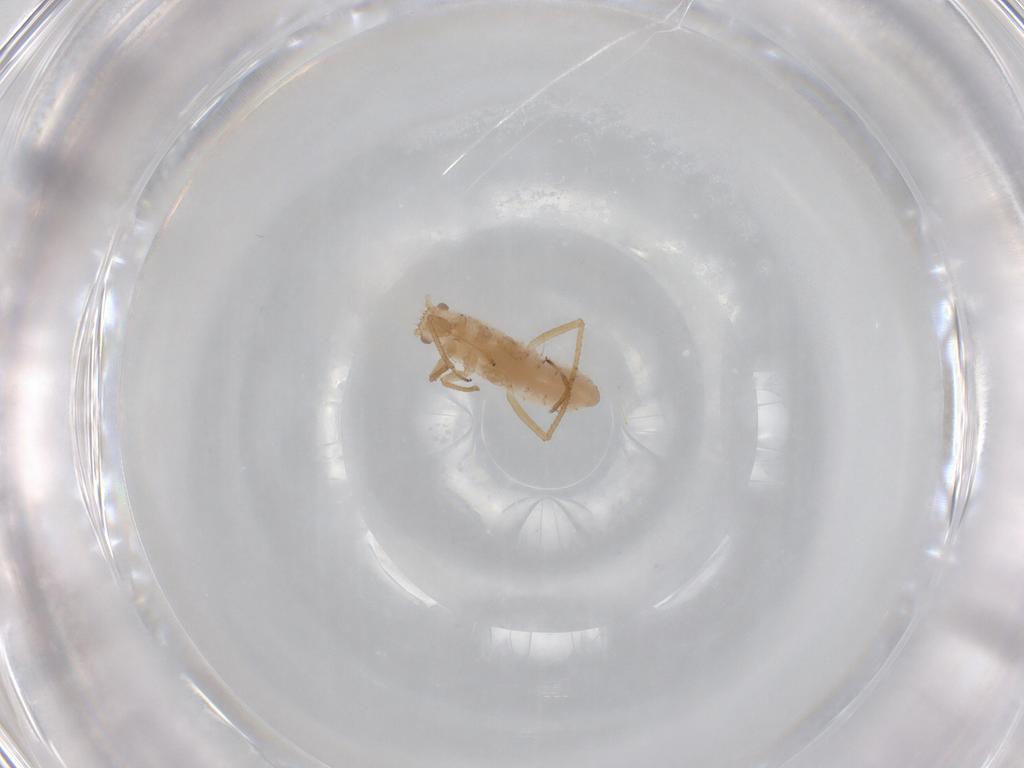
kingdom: Animalia
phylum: Arthropoda
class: Insecta
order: Hemiptera
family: Aphididae
